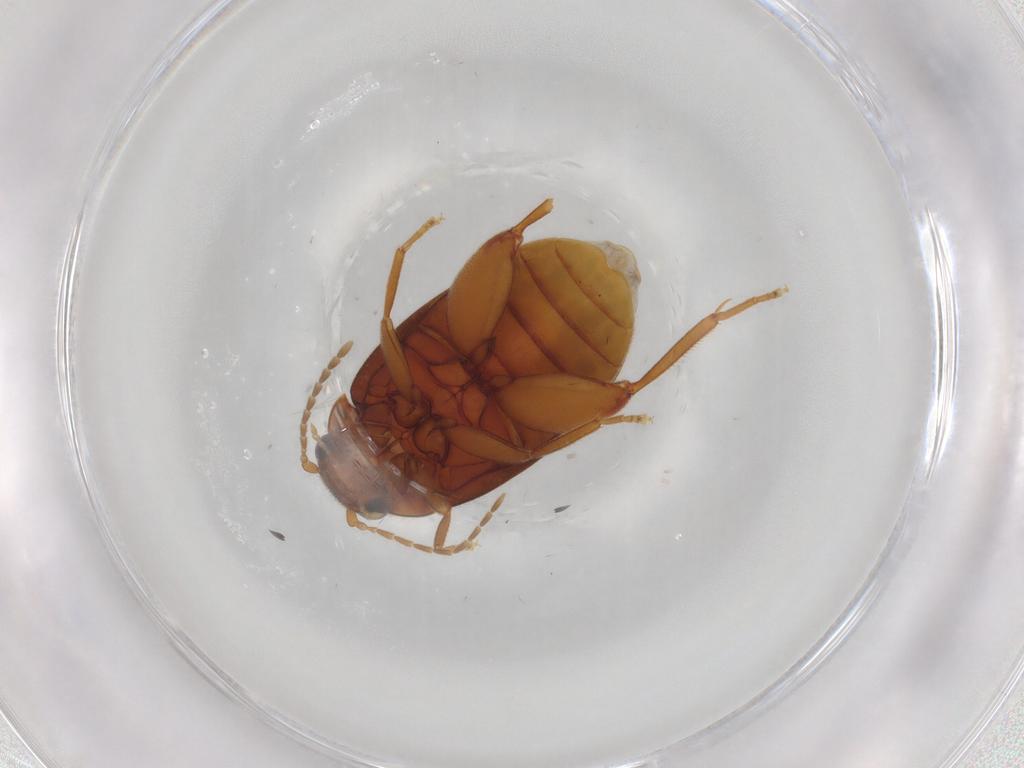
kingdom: Animalia
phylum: Arthropoda
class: Insecta
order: Coleoptera
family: Scirtidae
